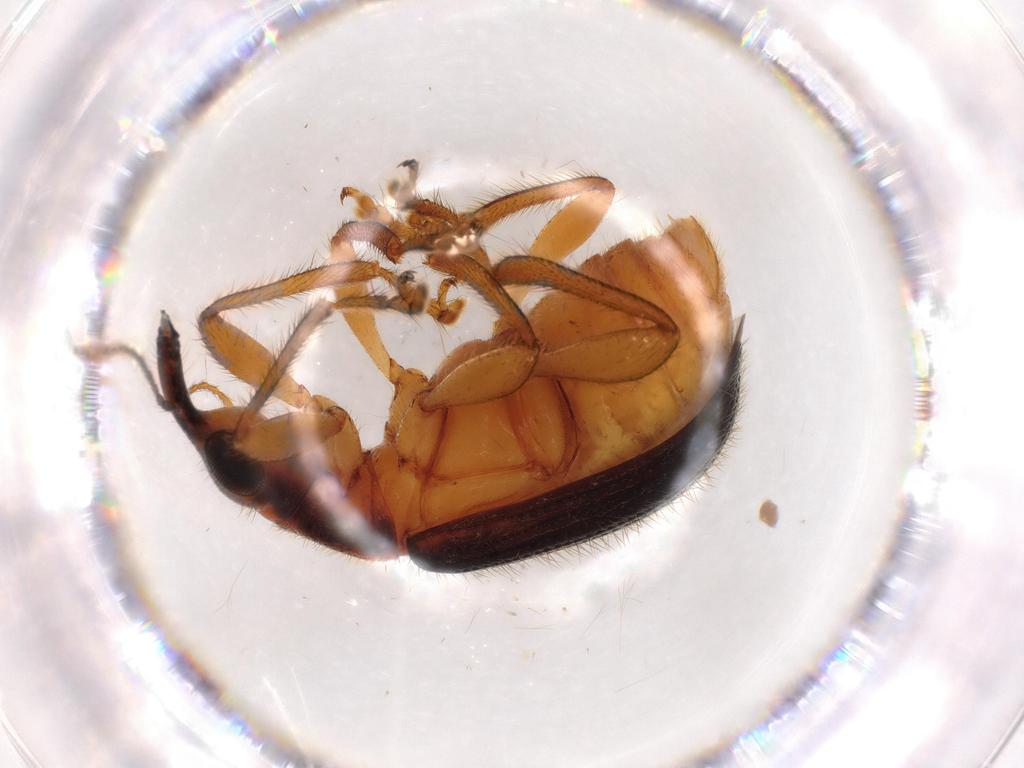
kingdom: Animalia
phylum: Arthropoda
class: Insecta
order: Coleoptera
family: Attelabidae
